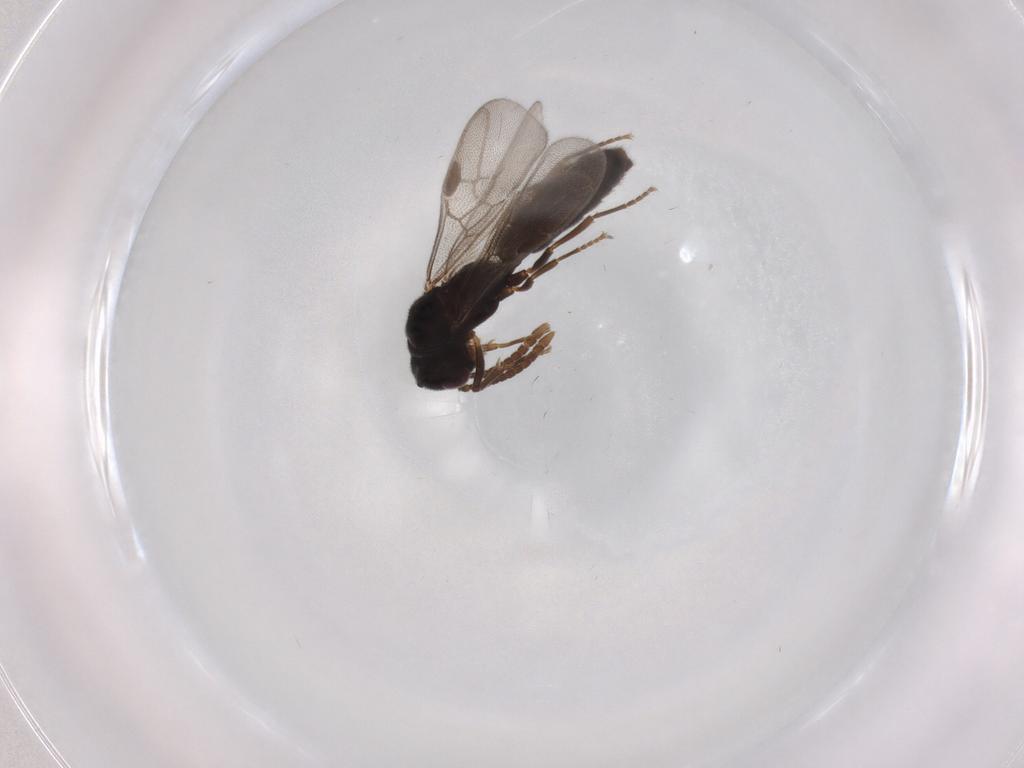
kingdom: Animalia
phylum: Arthropoda
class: Insecta
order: Hymenoptera
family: Formicidae
